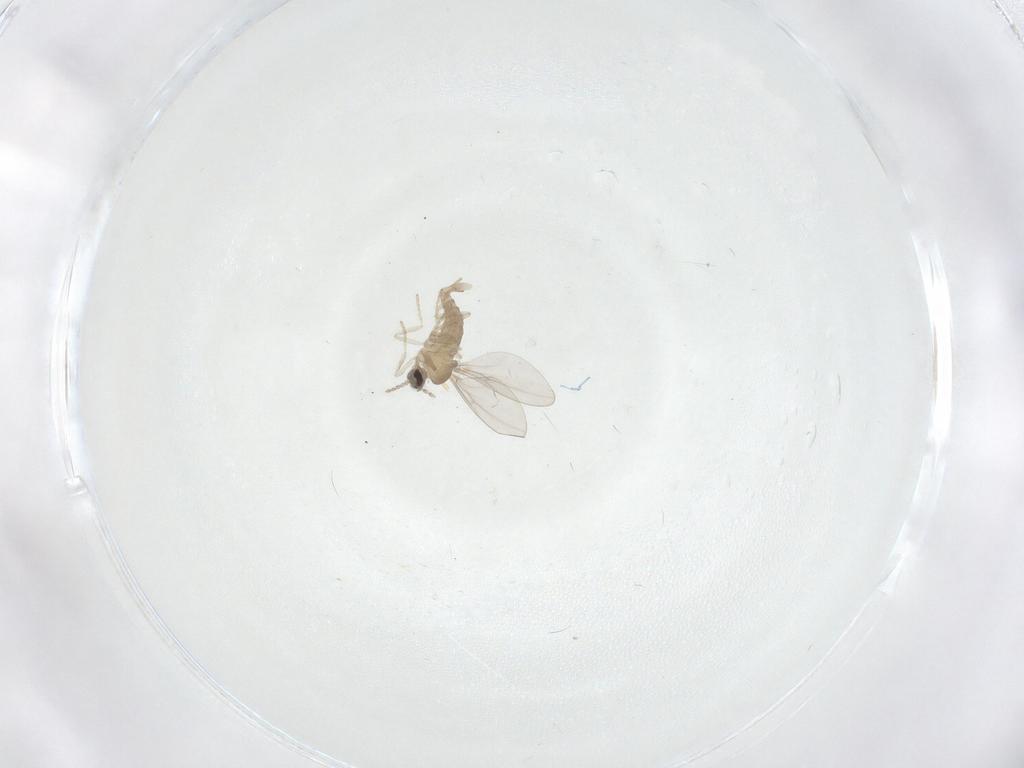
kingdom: Animalia
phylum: Arthropoda
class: Insecta
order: Diptera
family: Cecidomyiidae
